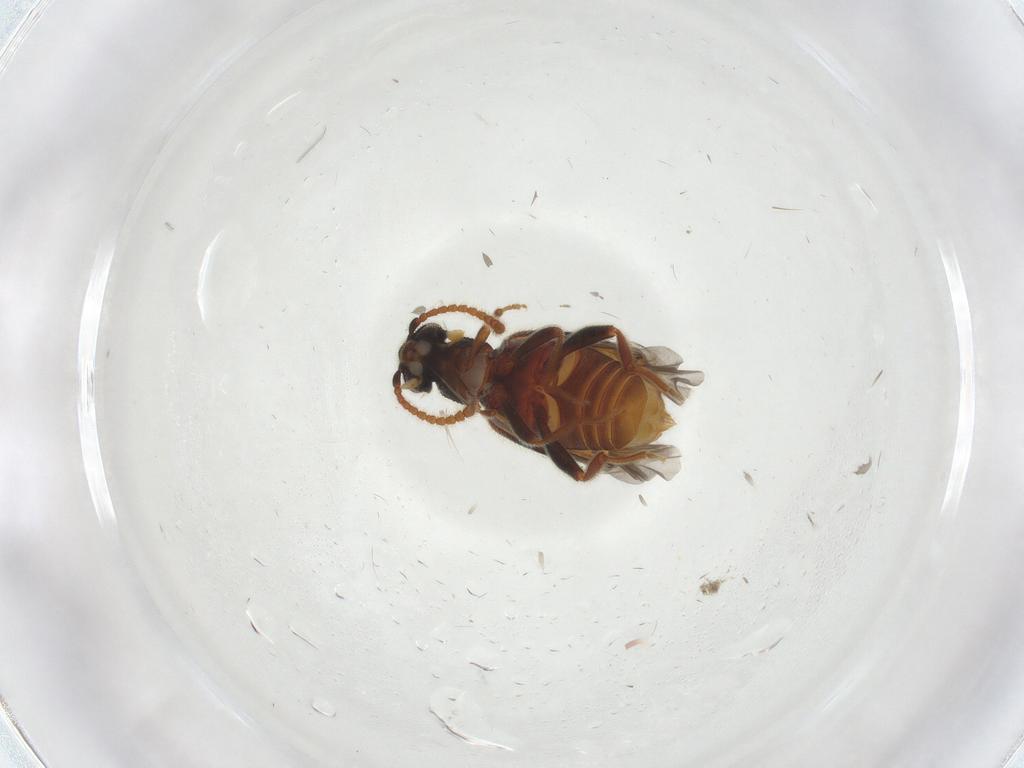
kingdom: Animalia
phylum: Arthropoda
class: Insecta
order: Coleoptera
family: Aderidae
